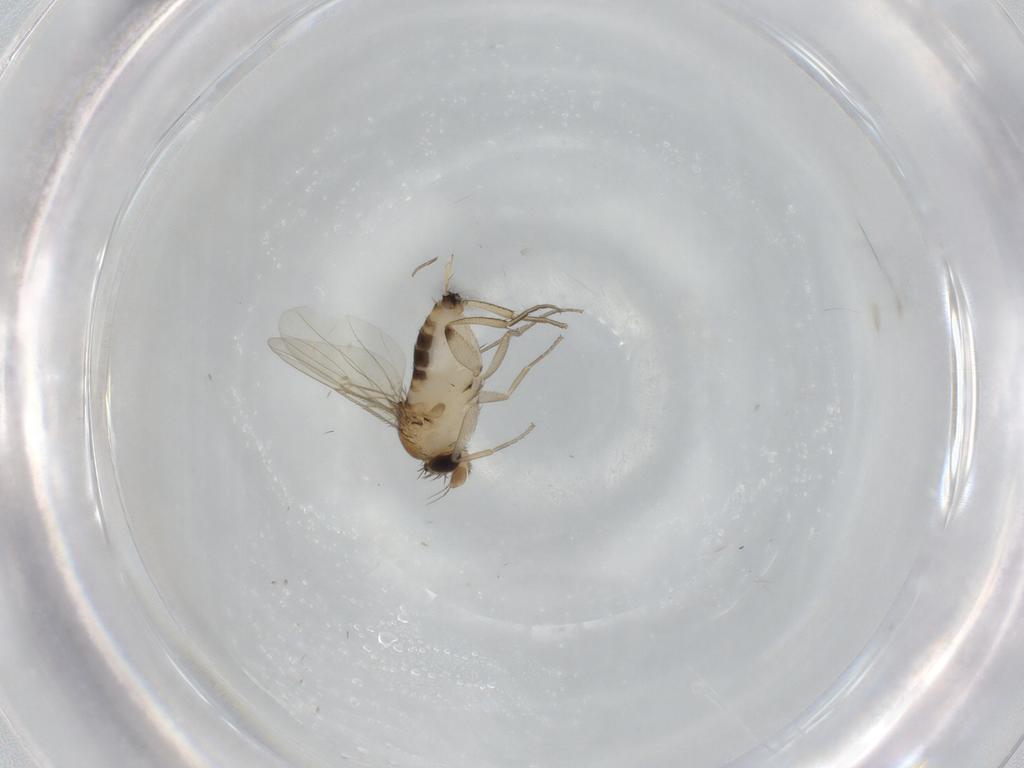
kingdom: Animalia
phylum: Arthropoda
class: Insecta
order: Diptera
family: Phoridae
